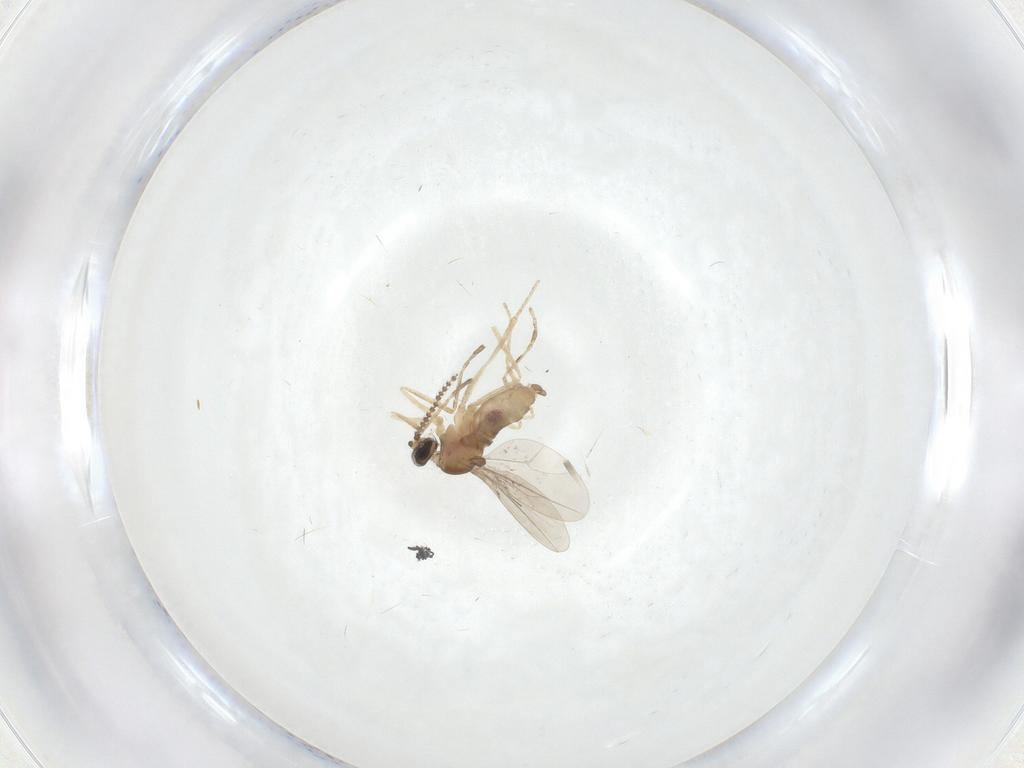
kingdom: Animalia
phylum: Arthropoda
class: Insecta
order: Diptera
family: Cecidomyiidae
